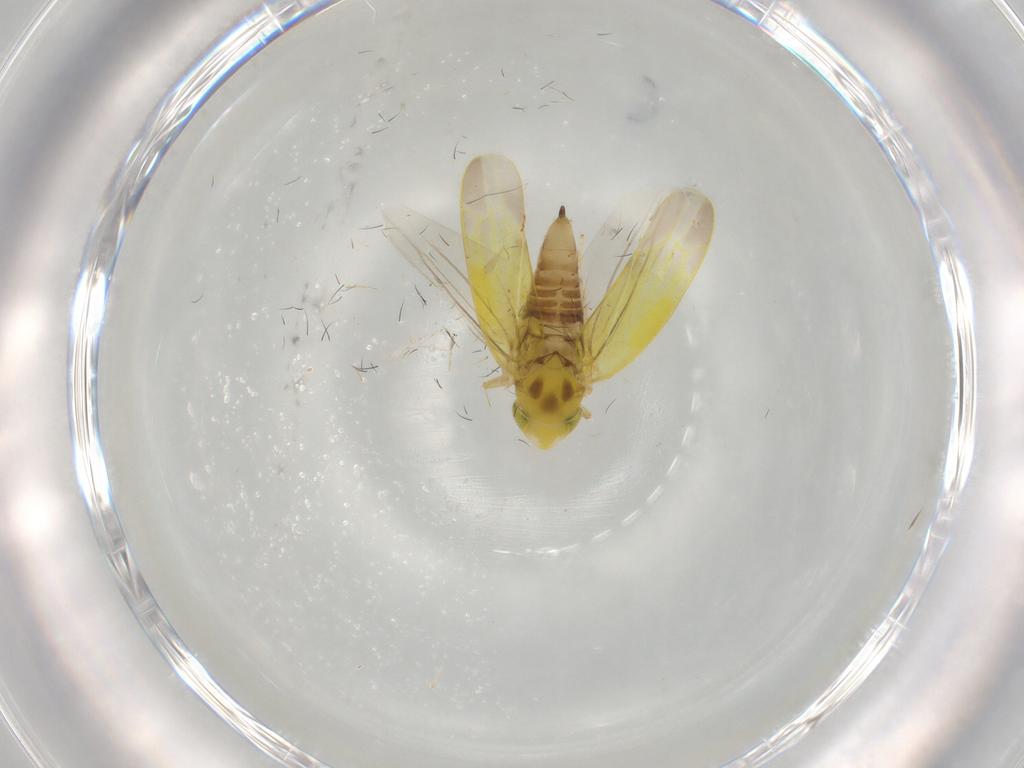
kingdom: Animalia
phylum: Arthropoda
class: Insecta
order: Hemiptera
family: Cicadellidae
